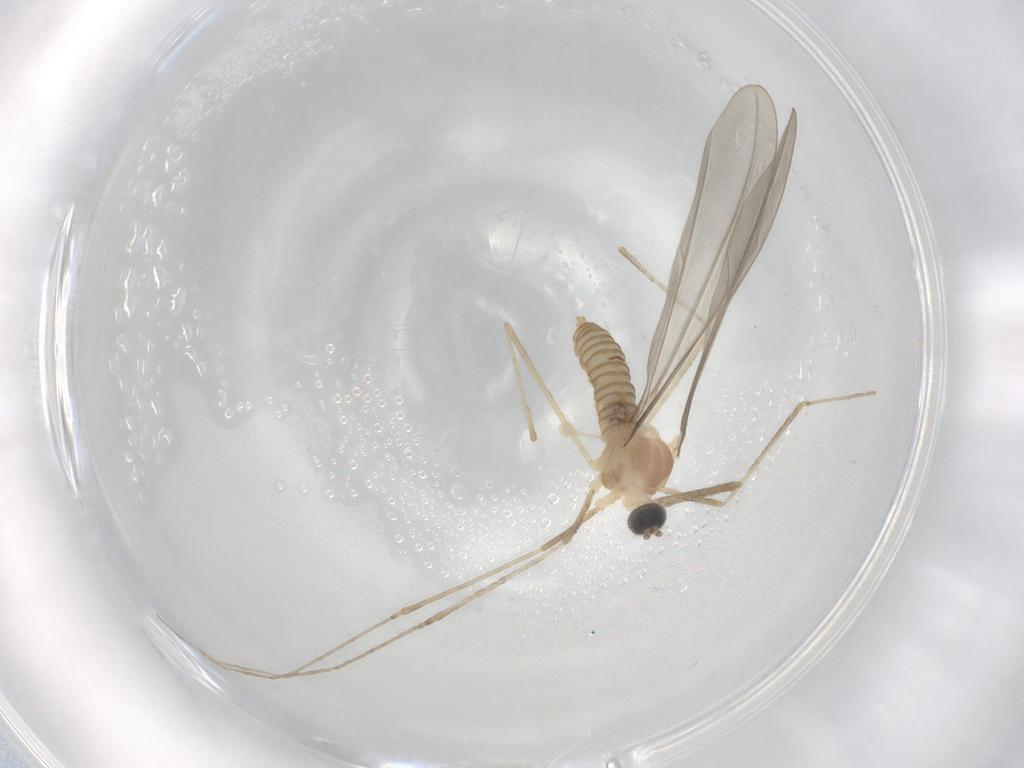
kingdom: Animalia
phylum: Arthropoda
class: Insecta
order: Diptera
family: Cecidomyiidae
